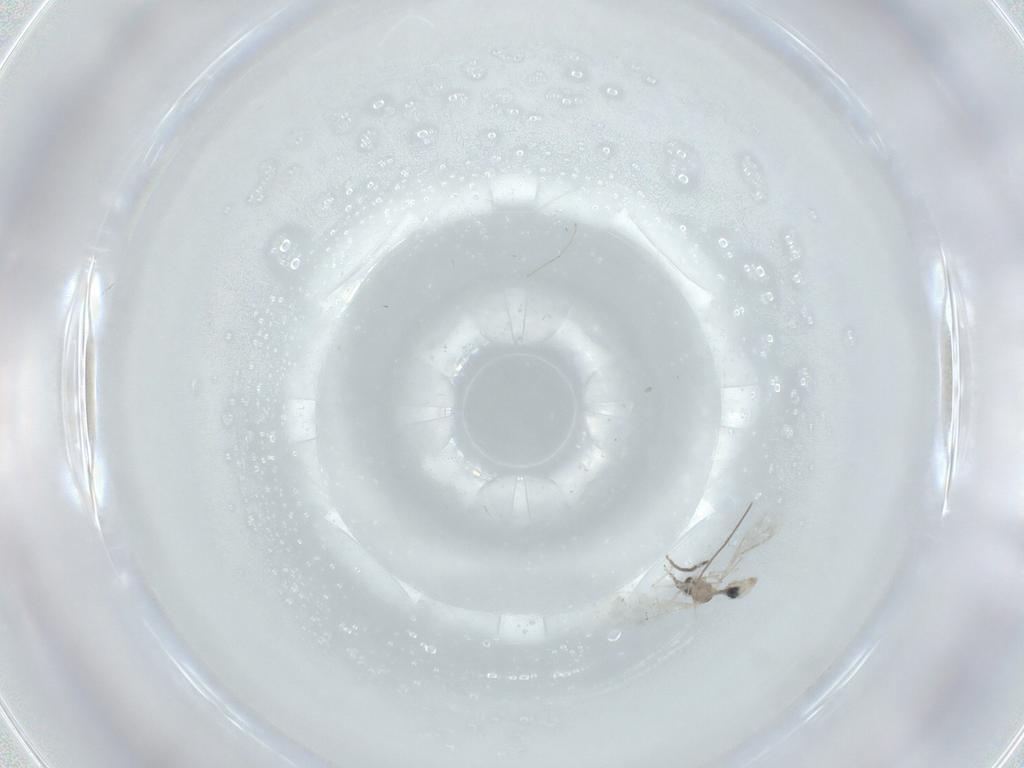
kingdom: Animalia
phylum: Arthropoda
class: Insecta
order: Diptera
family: Cecidomyiidae
